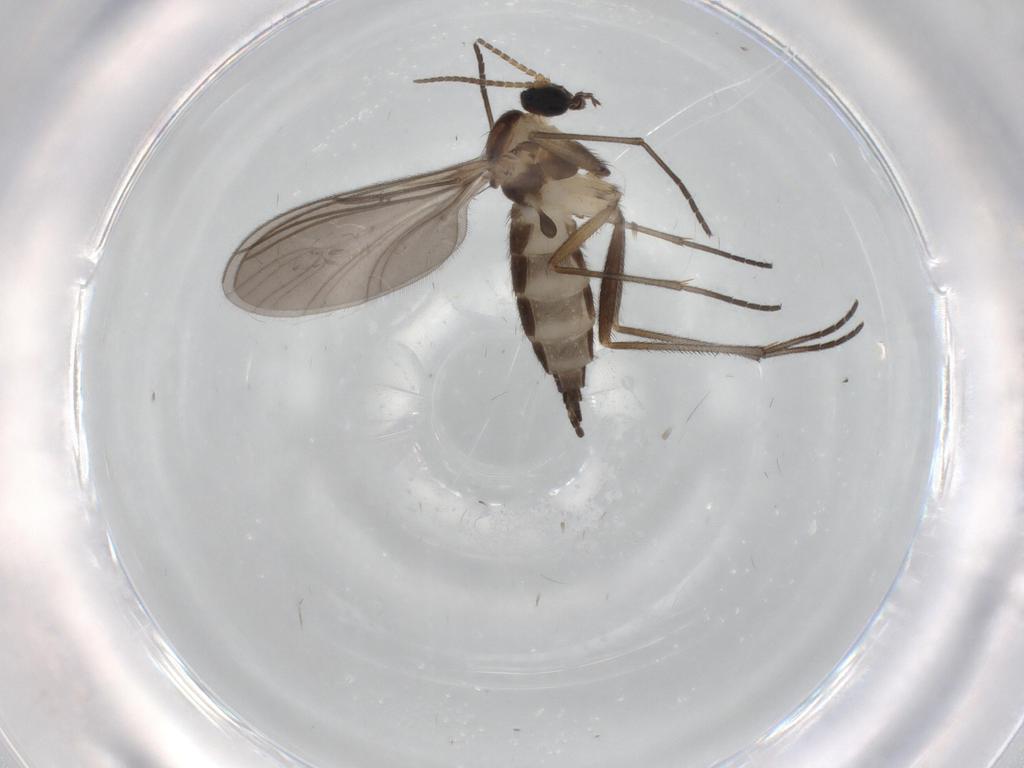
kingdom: Animalia
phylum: Arthropoda
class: Insecta
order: Diptera
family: Sciaridae
